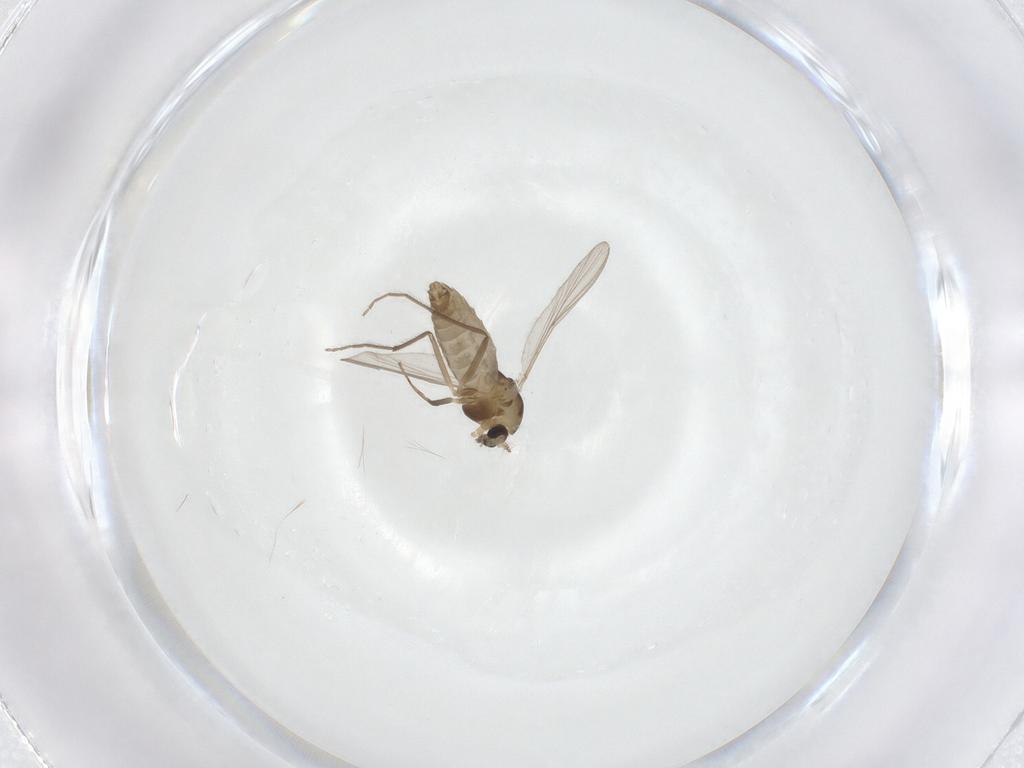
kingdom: Animalia
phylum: Arthropoda
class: Insecta
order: Diptera
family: Chironomidae
